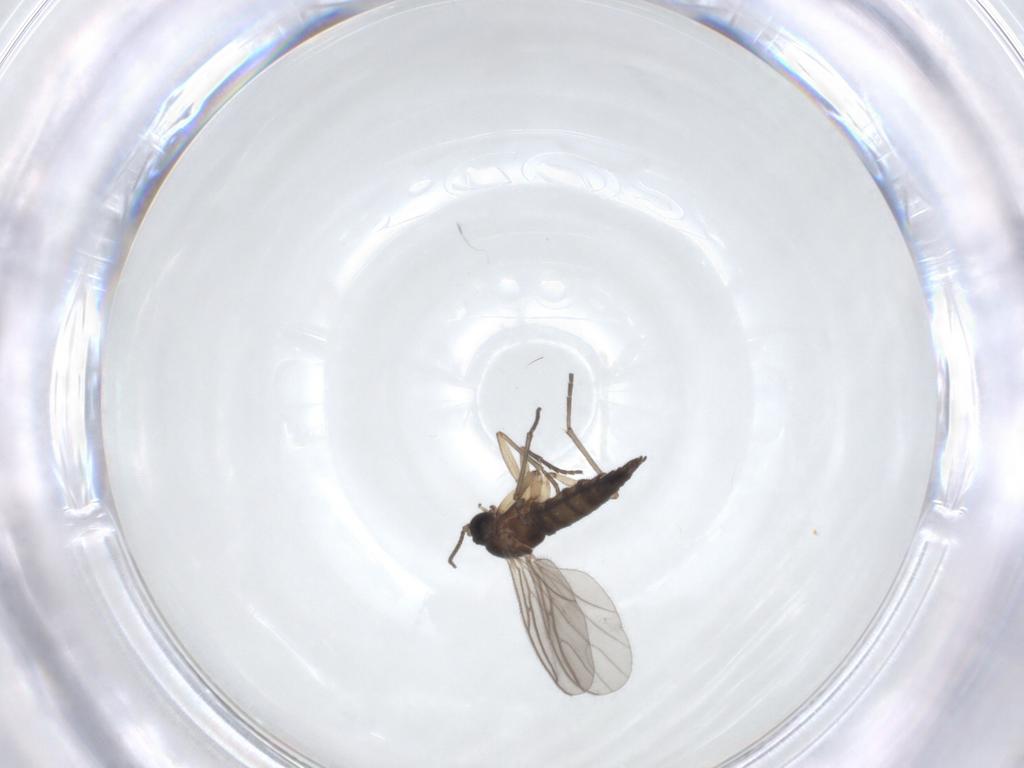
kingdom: Animalia
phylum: Arthropoda
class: Insecta
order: Diptera
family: Sciaridae
